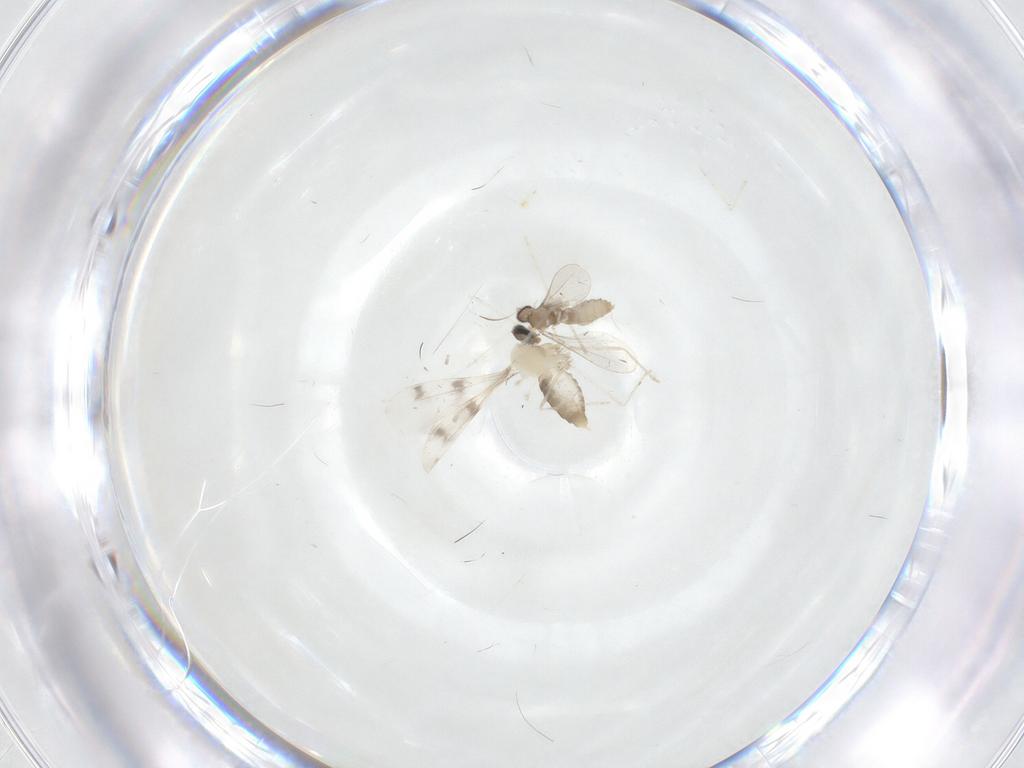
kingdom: Animalia
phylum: Arthropoda
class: Insecta
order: Diptera
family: Cecidomyiidae
